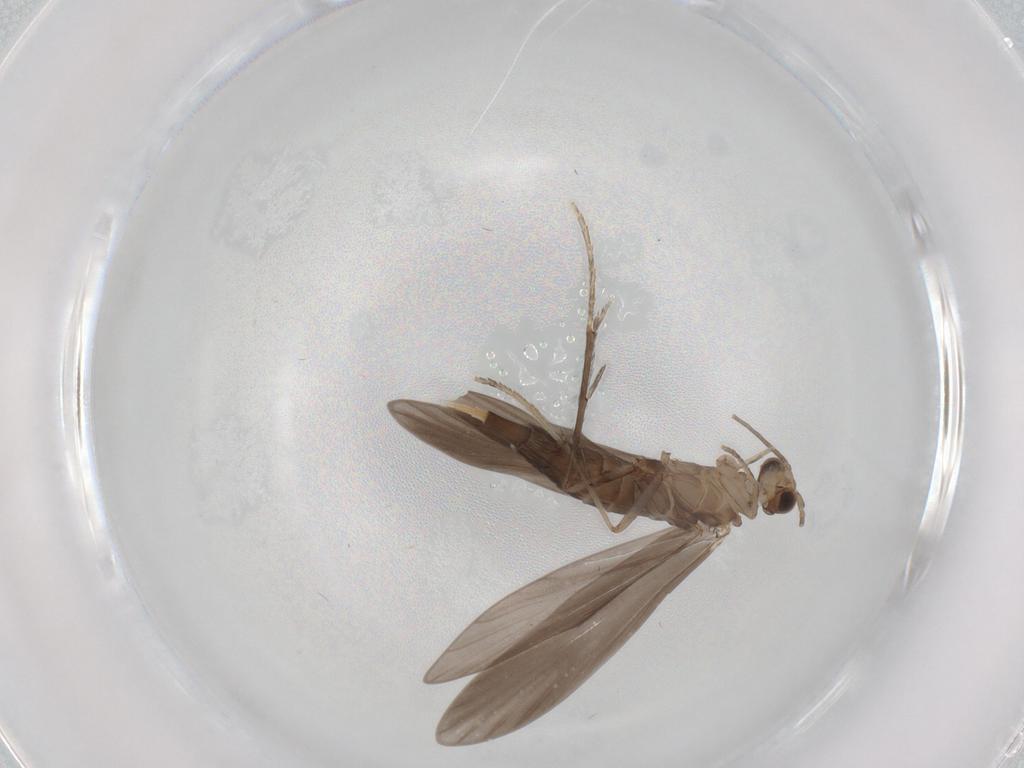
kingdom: Animalia
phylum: Arthropoda
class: Insecta
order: Trichoptera
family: Xiphocentronidae
